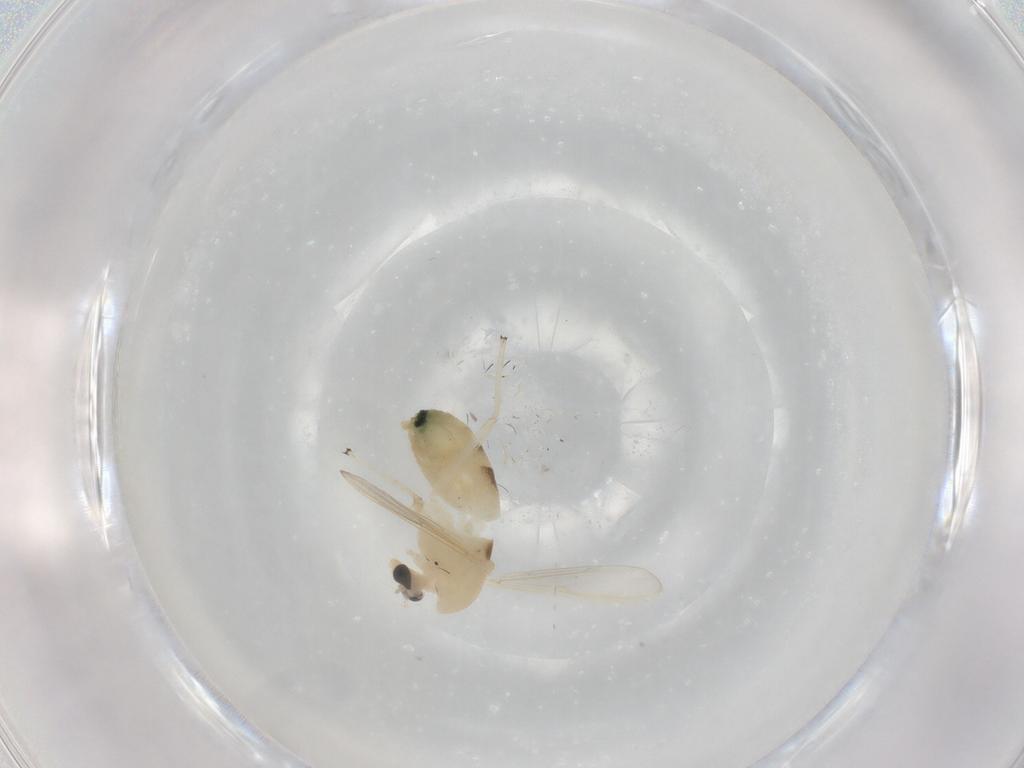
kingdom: Animalia
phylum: Arthropoda
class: Insecta
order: Diptera
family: Chironomidae
